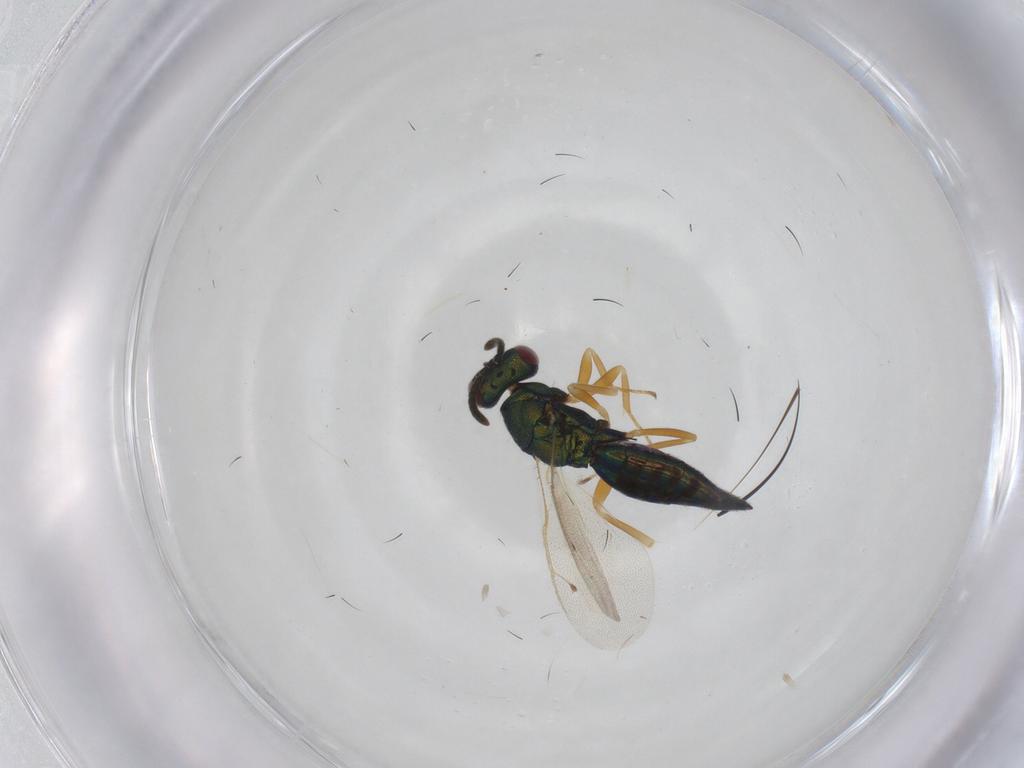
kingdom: Animalia
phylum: Arthropoda
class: Insecta
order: Hymenoptera
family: Pteromalidae
